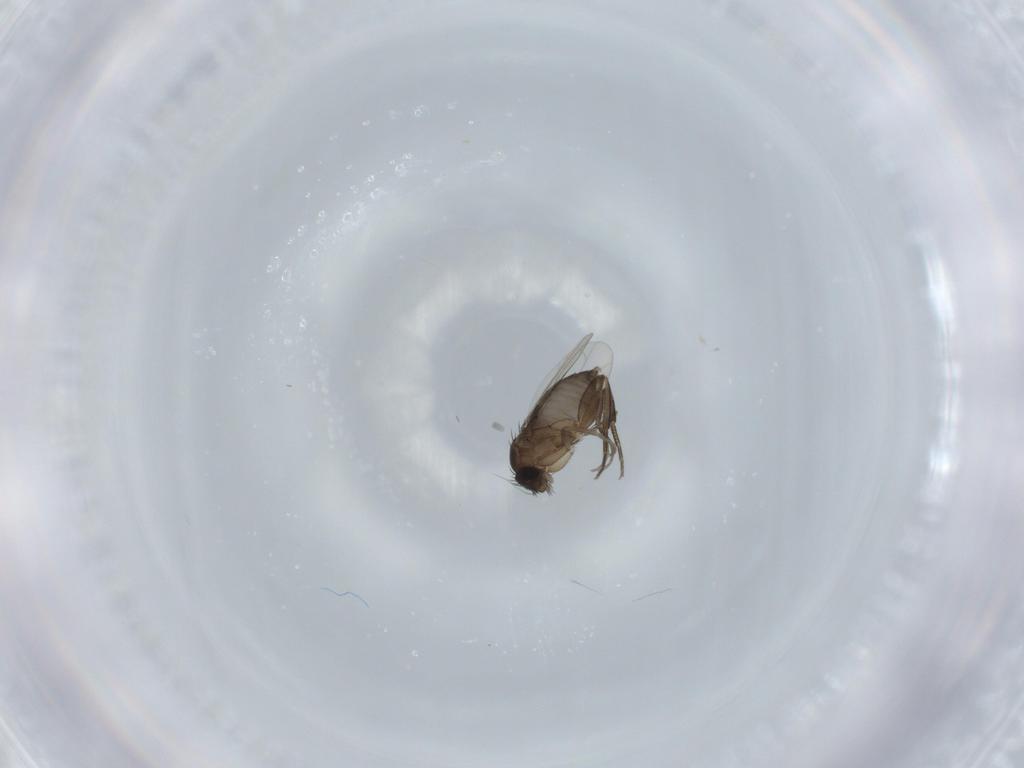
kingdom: Animalia
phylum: Arthropoda
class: Insecta
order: Diptera
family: Phoridae
